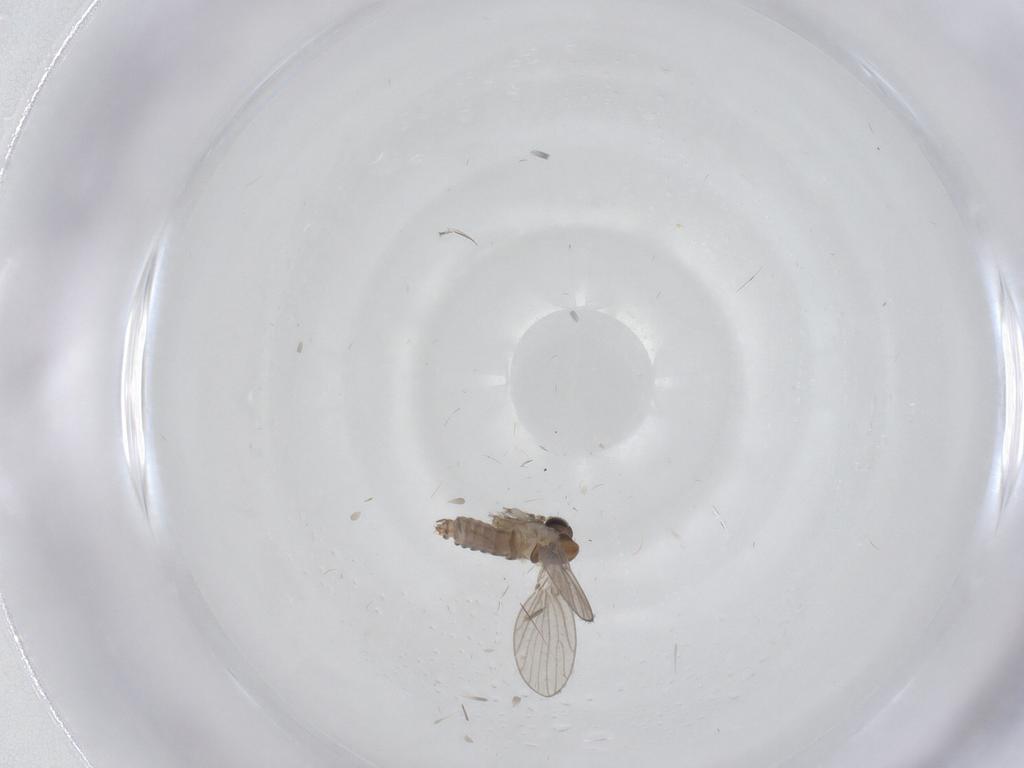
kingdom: Animalia
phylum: Arthropoda
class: Insecta
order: Diptera
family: Psychodidae
